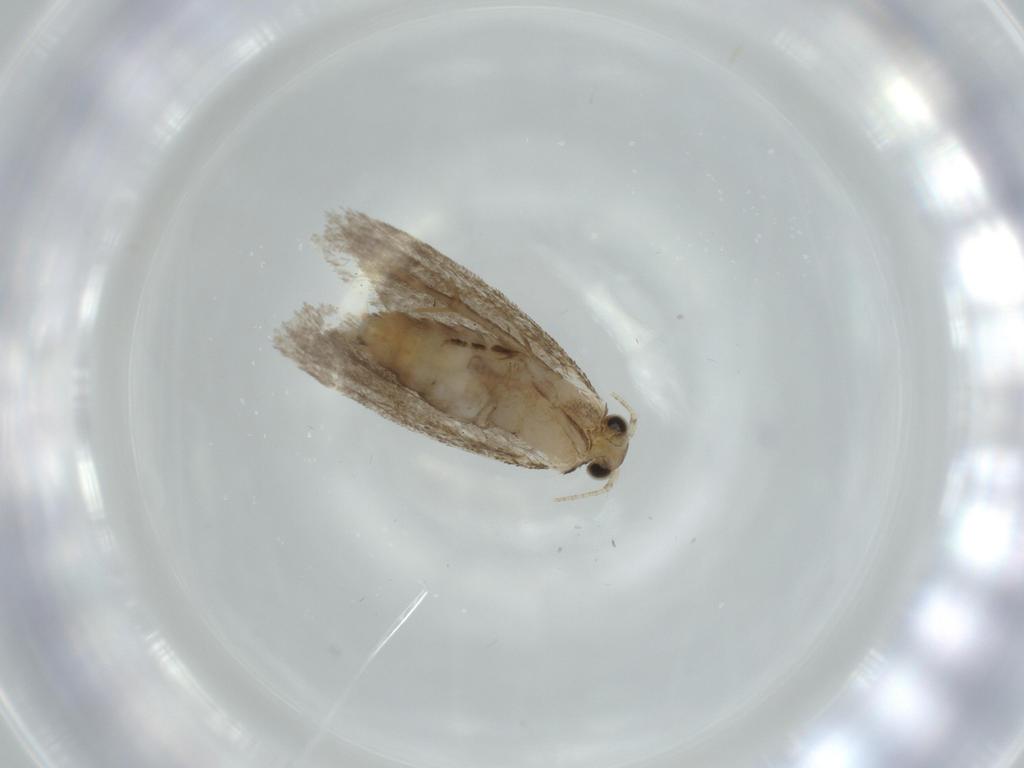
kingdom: Animalia
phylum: Arthropoda
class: Insecta
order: Lepidoptera
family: Tineidae
